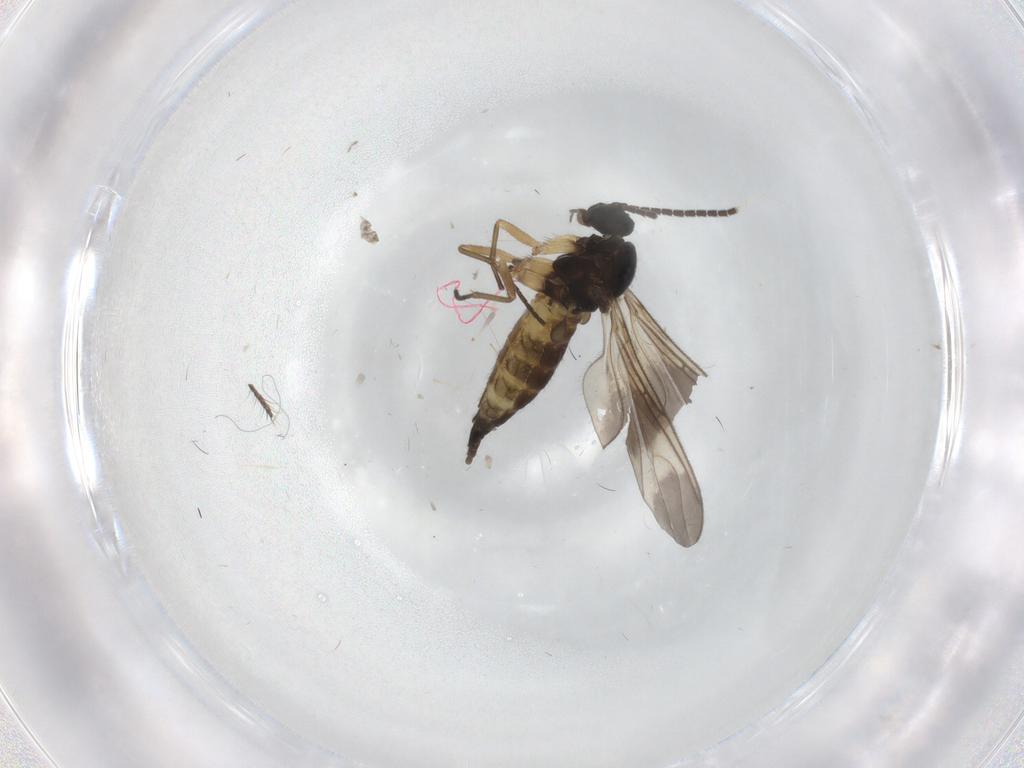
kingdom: Animalia
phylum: Arthropoda
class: Insecta
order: Diptera
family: Sciaridae
